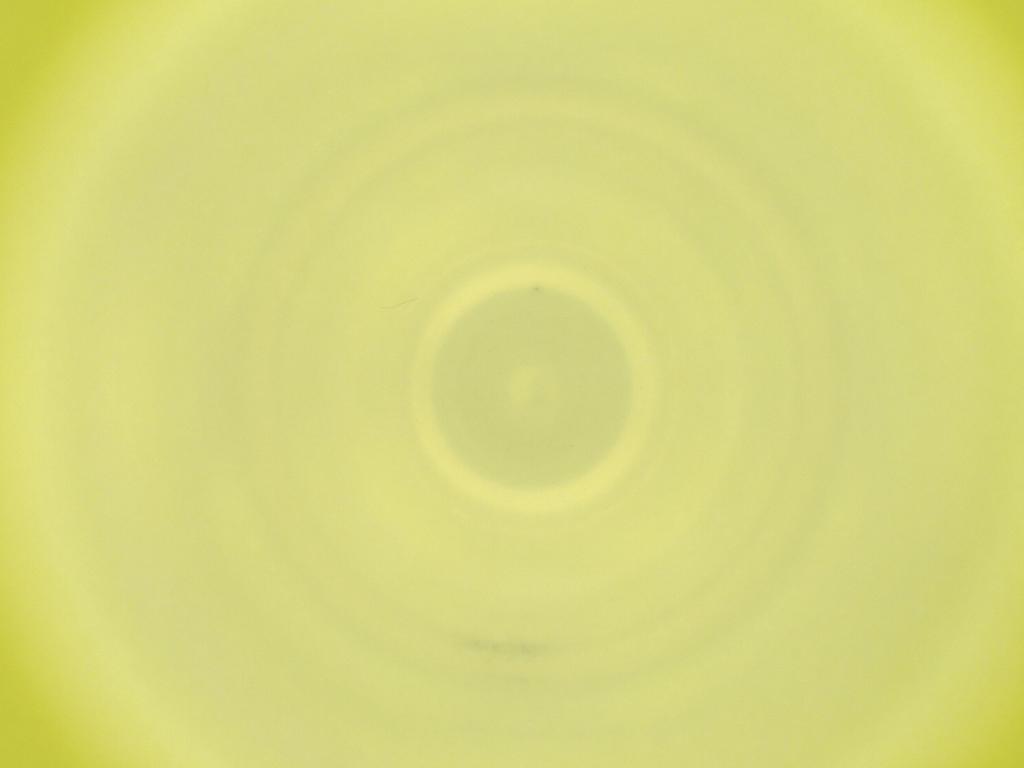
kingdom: Animalia
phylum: Arthropoda
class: Insecta
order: Diptera
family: Cecidomyiidae
